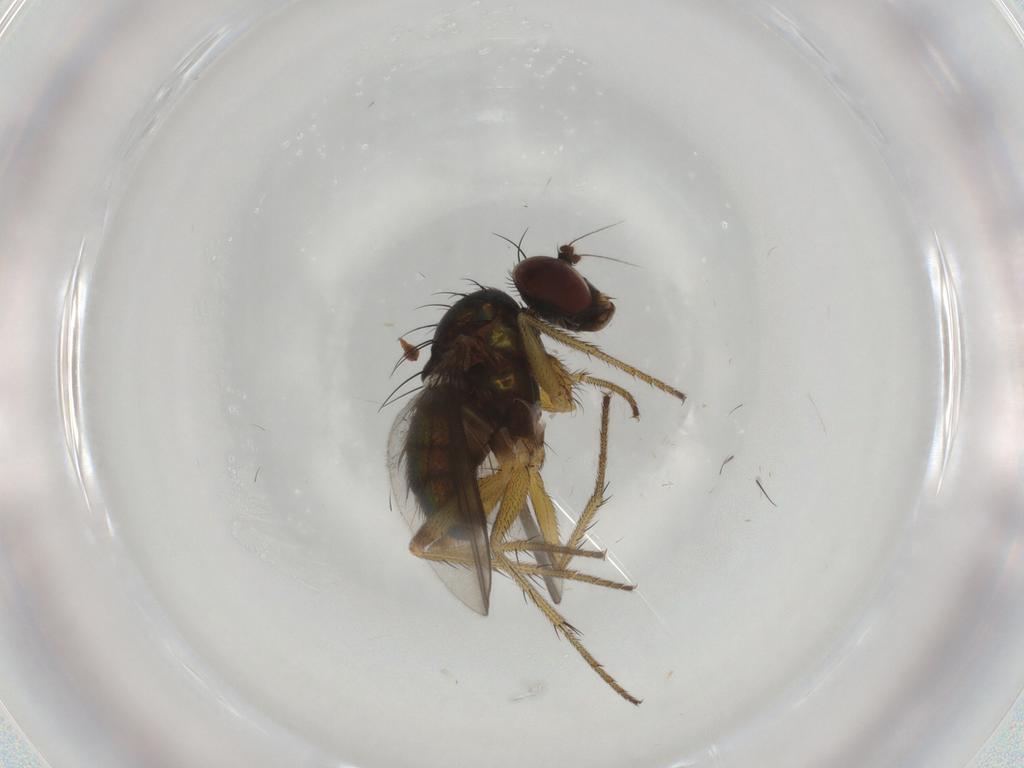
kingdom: Animalia
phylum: Arthropoda
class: Insecta
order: Diptera
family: Dolichopodidae
